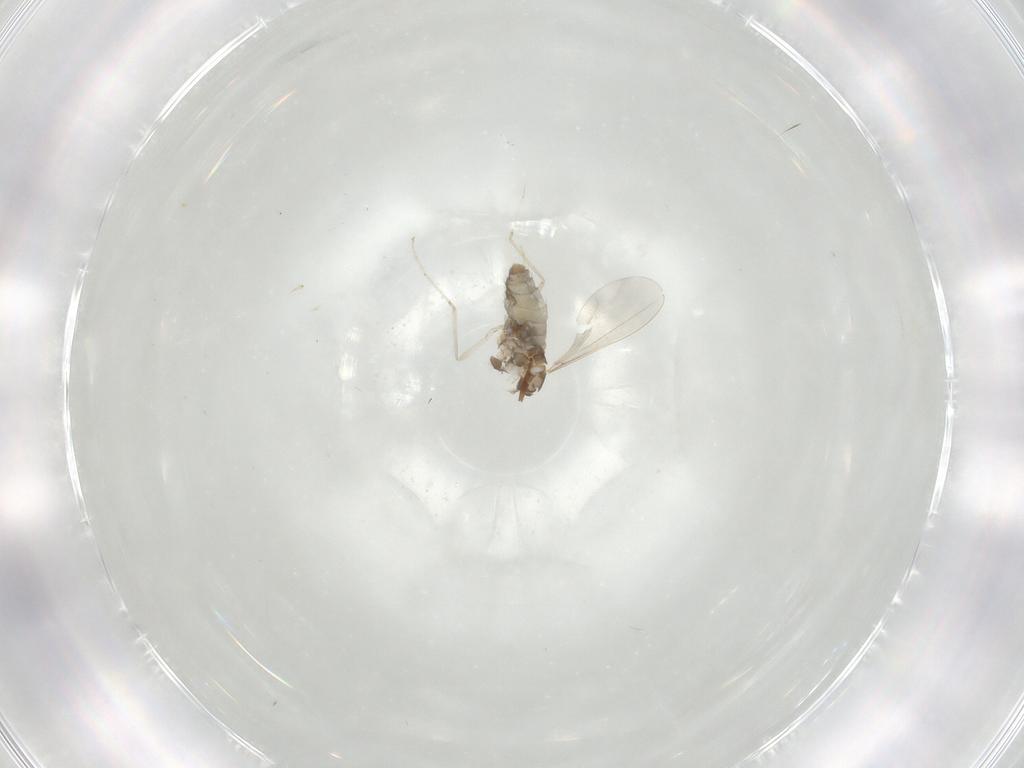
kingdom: Animalia
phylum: Arthropoda
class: Insecta
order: Diptera
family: Cecidomyiidae
